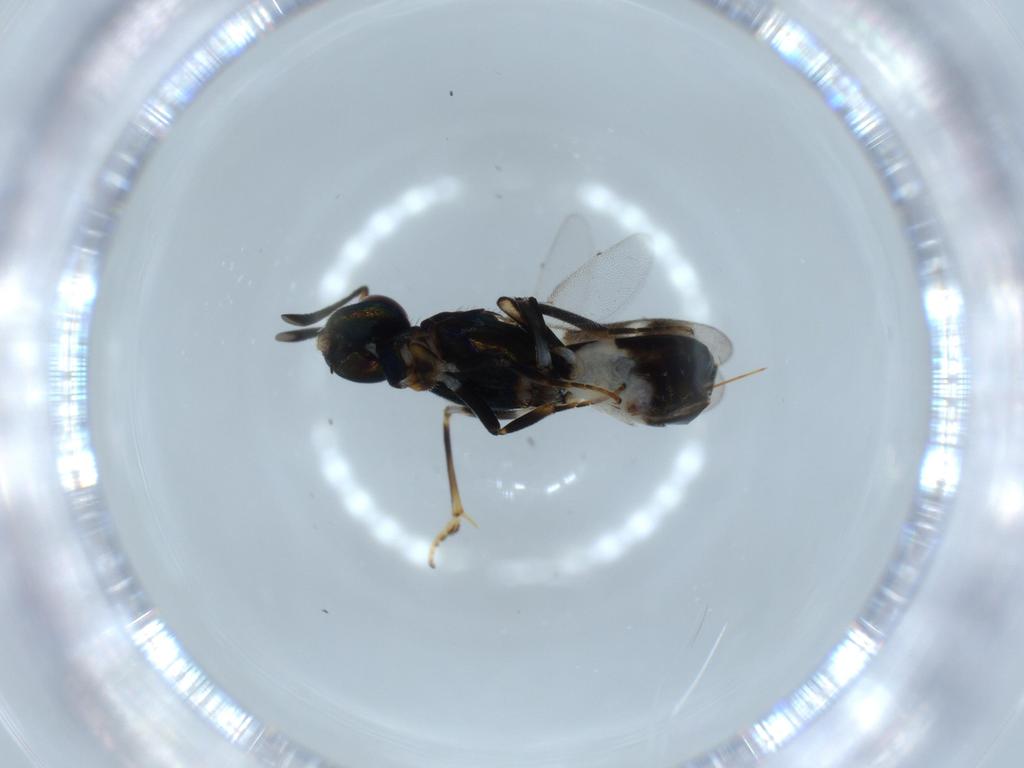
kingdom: Animalia
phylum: Arthropoda
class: Insecta
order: Hymenoptera
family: Eupelmidae
